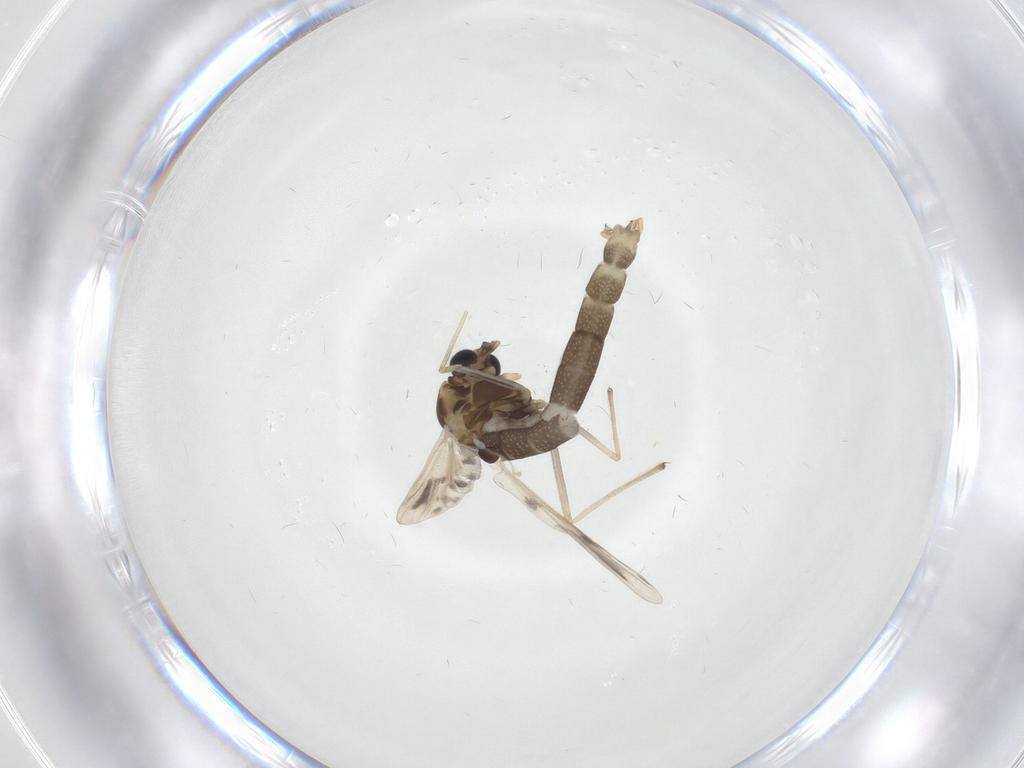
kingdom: Animalia
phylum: Arthropoda
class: Insecta
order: Diptera
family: Chironomidae
